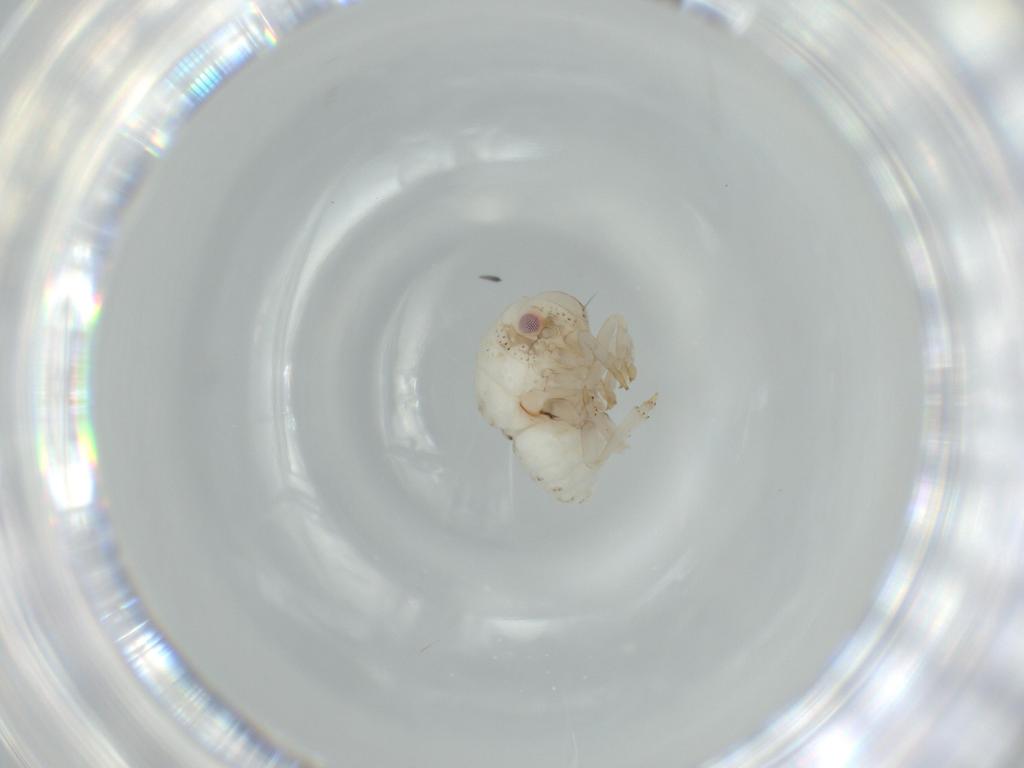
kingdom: Animalia
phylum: Arthropoda
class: Insecta
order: Hemiptera
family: Acanaloniidae
